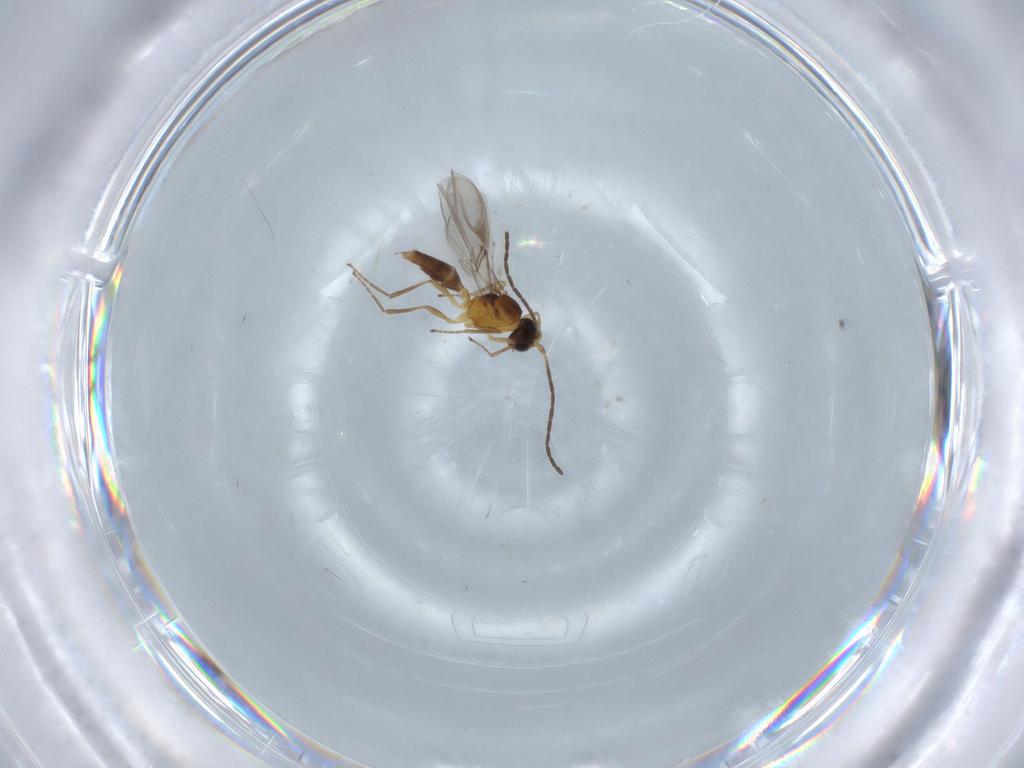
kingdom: Animalia
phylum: Arthropoda
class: Insecta
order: Hymenoptera
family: Braconidae
